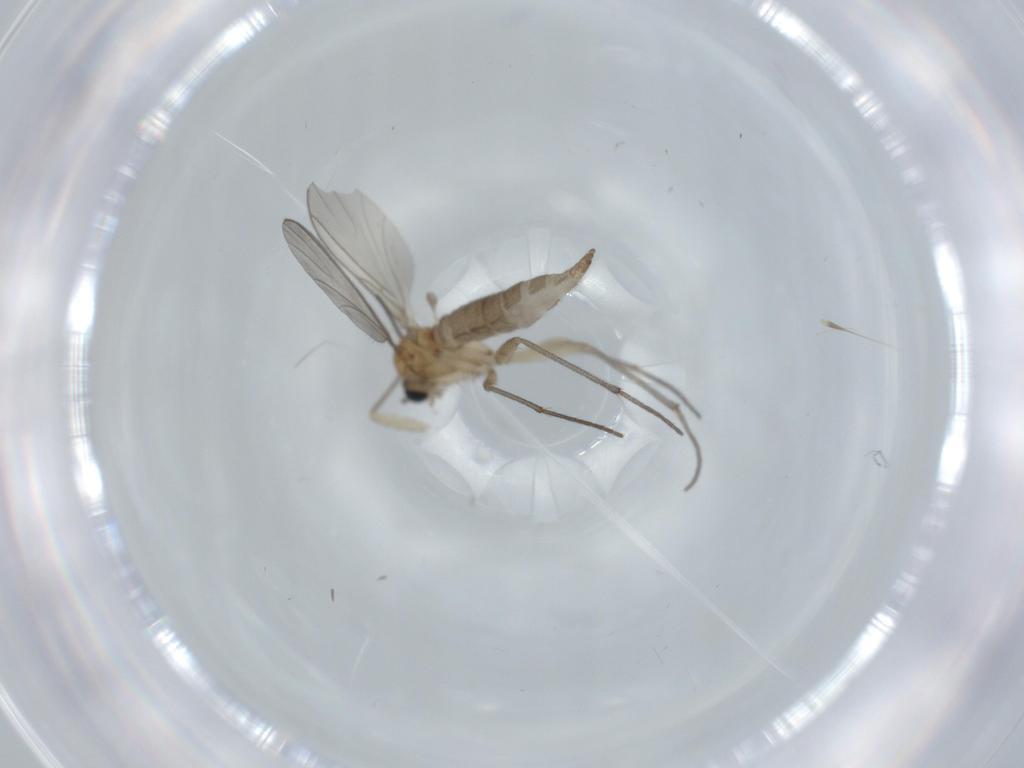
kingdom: Animalia
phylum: Arthropoda
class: Insecta
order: Diptera
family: Sciaridae
